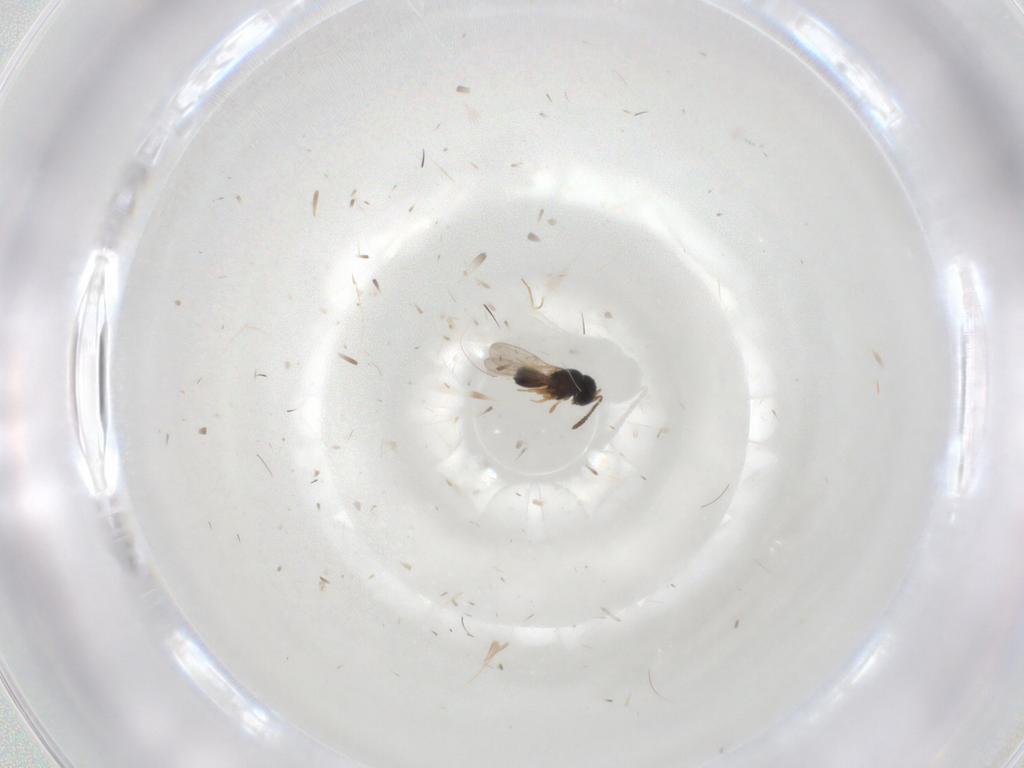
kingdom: Animalia
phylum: Arthropoda
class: Insecta
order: Hymenoptera
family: Scelionidae
